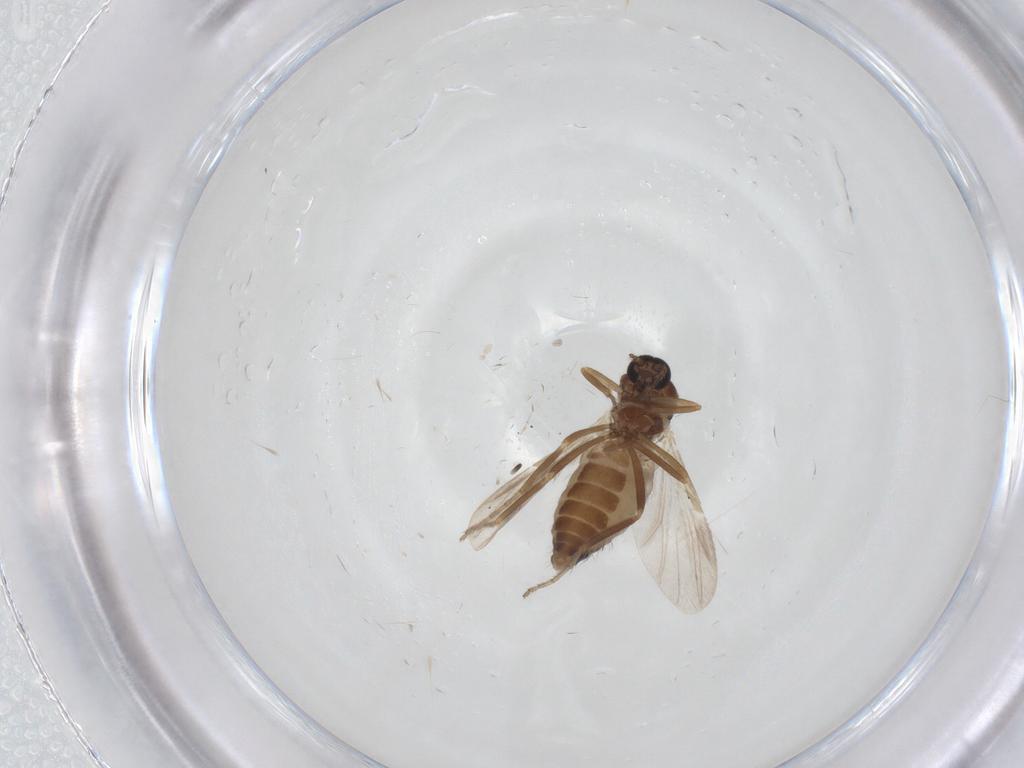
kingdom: Animalia
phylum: Arthropoda
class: Insecta
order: Diptera
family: Ceratopogonidae
